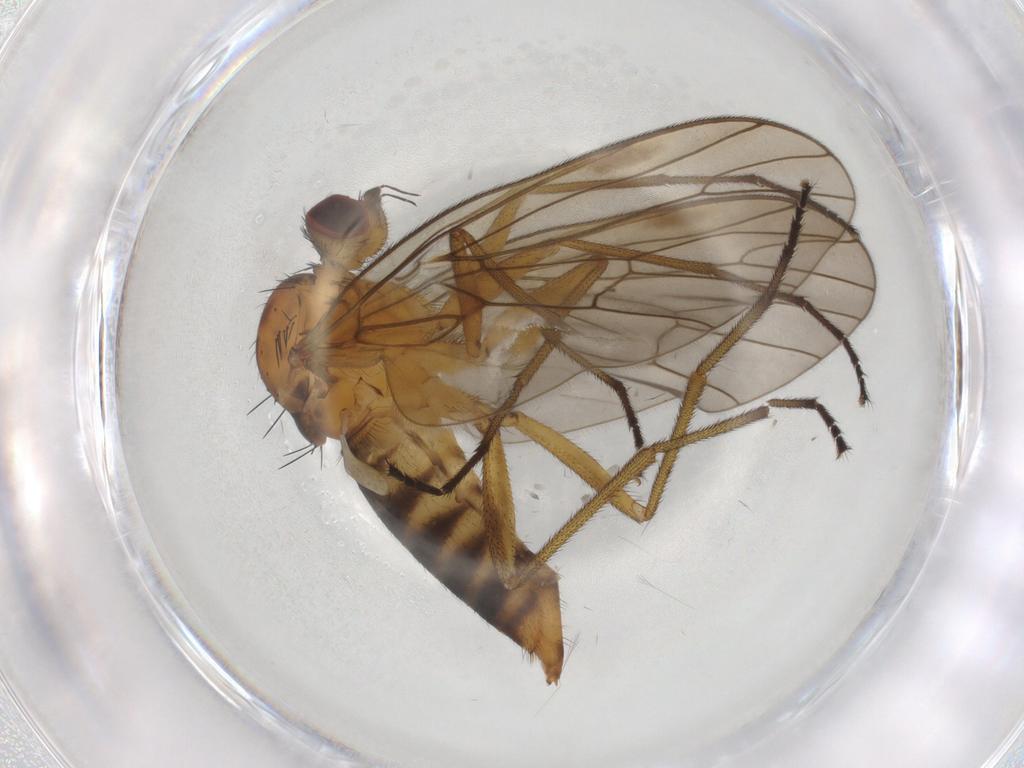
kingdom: Animalia
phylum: Arthropoda
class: Insecta
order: Diptera
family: Brachystomatidae
